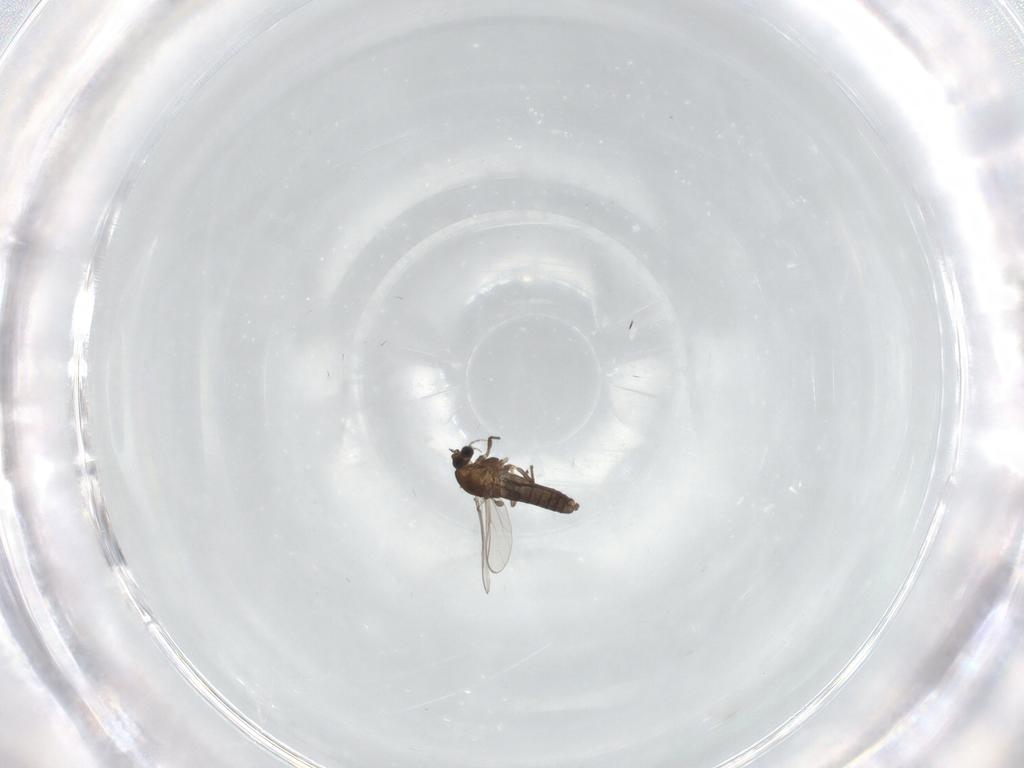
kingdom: Animalia
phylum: Arthropoda
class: Insecta
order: Diptera
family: Chironomidae
